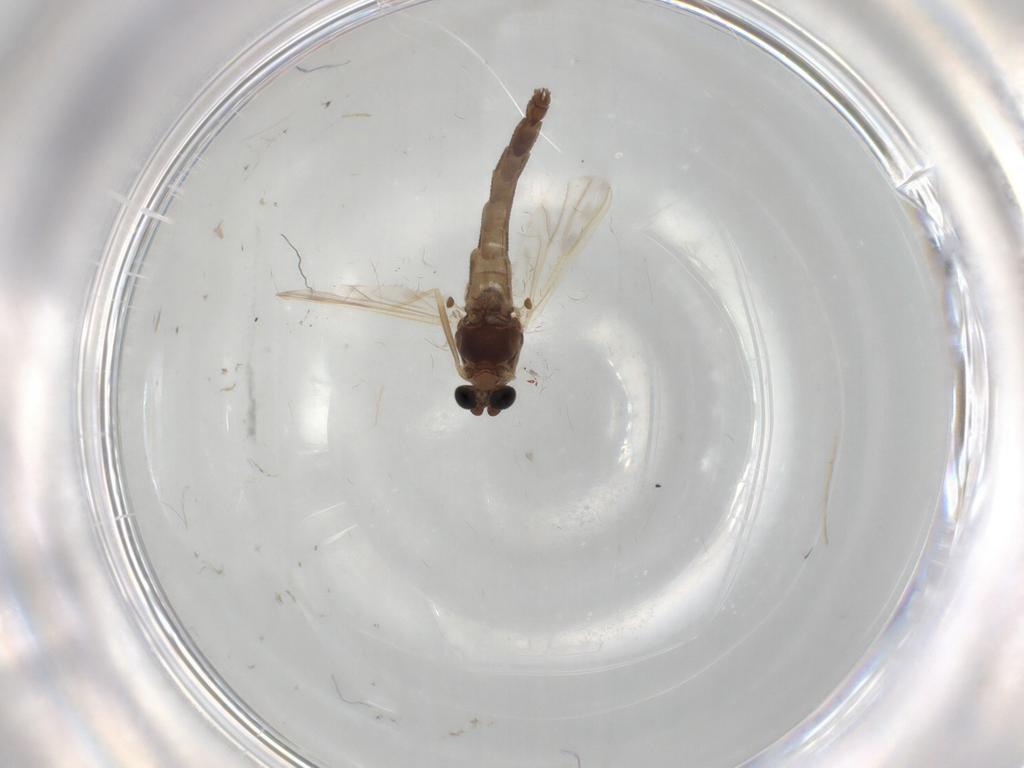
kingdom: Animalia
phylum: Arthropoda
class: Insecta
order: Diptera
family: Chironomidae
